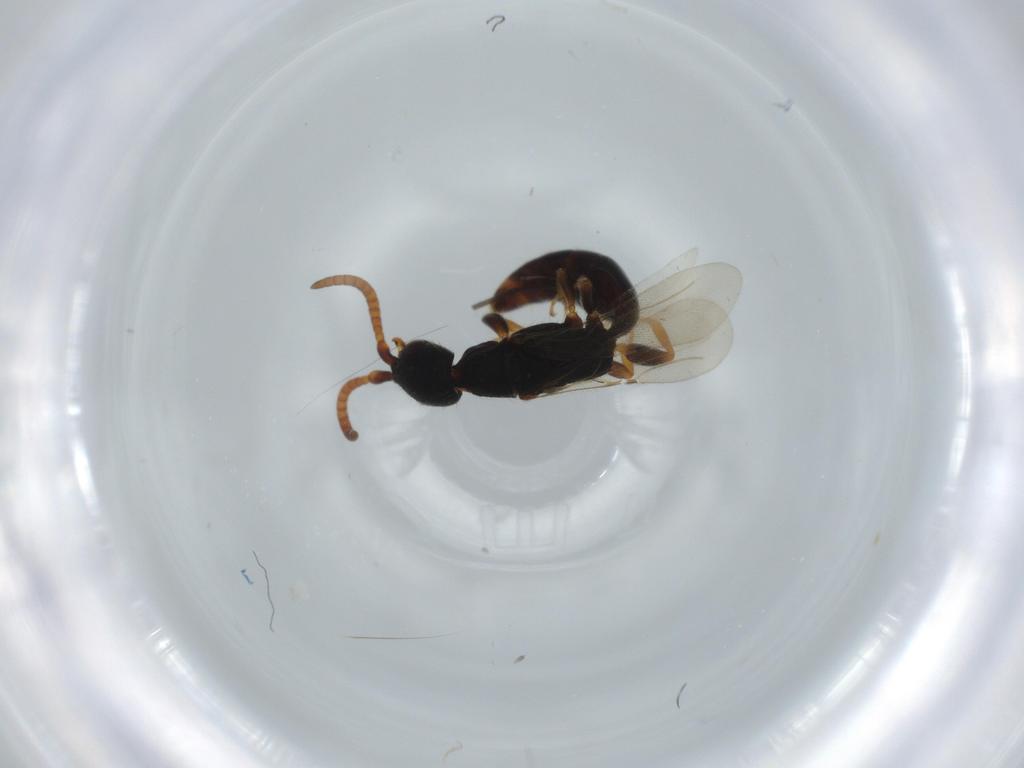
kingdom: Animalia
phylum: Arthropoda
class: Insecta
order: Hymenoptera
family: Bethylidae
